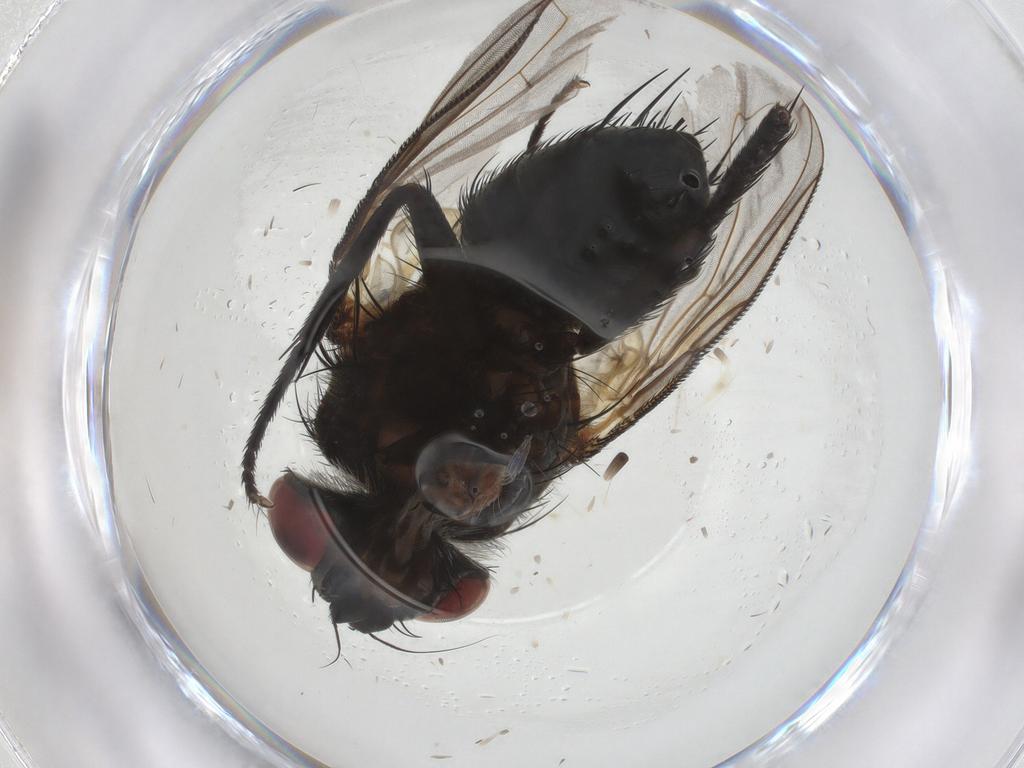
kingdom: Animalia
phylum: Arthropoda
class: Insecta
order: Diptera
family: Tachinidae
